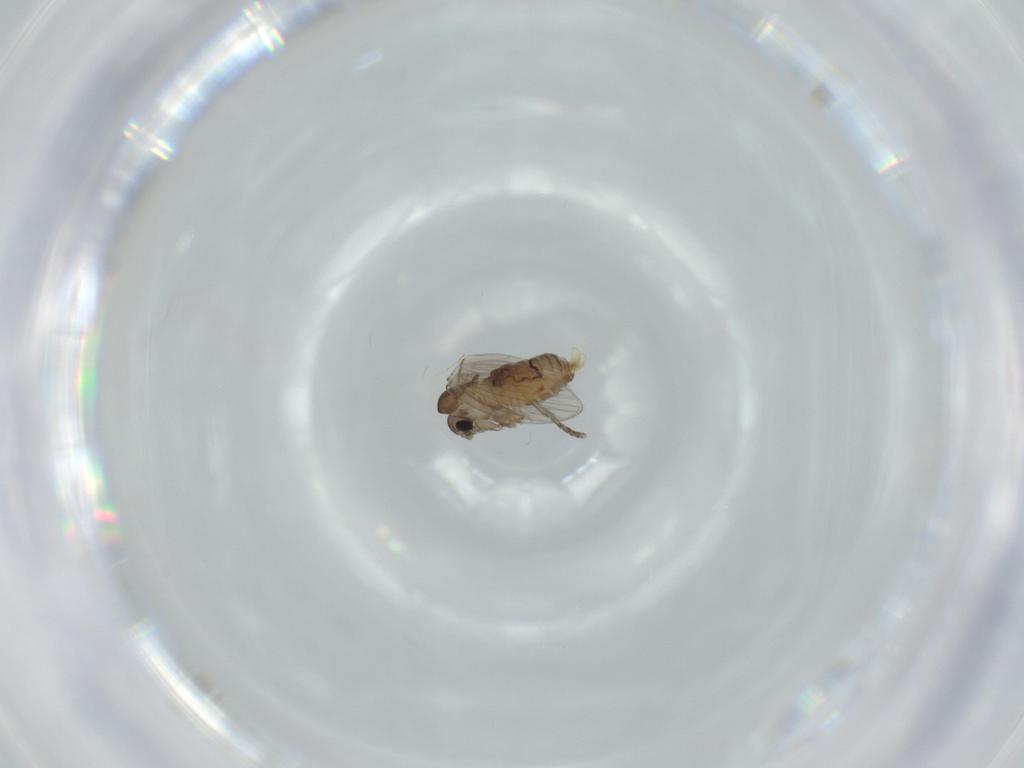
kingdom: Animalia
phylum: Arthropoda
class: Insecta
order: Diptera
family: Psychodidae
